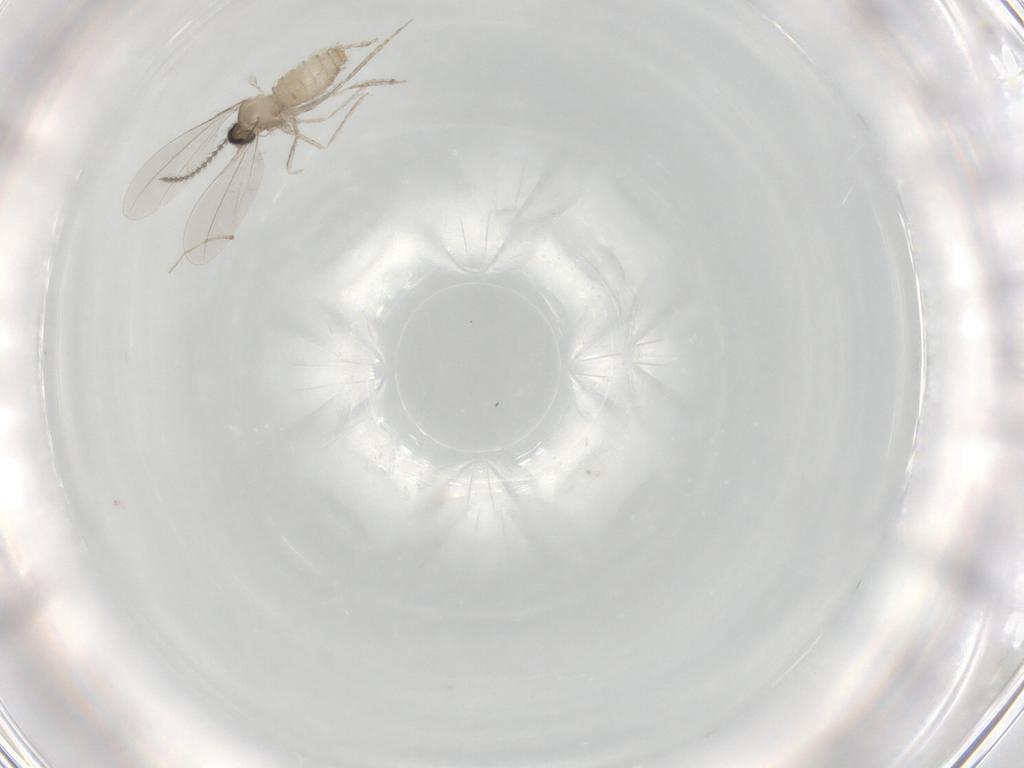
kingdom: Animalia
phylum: Arthropoda
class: Insecta
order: Diptera
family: Cecidomyiidae
